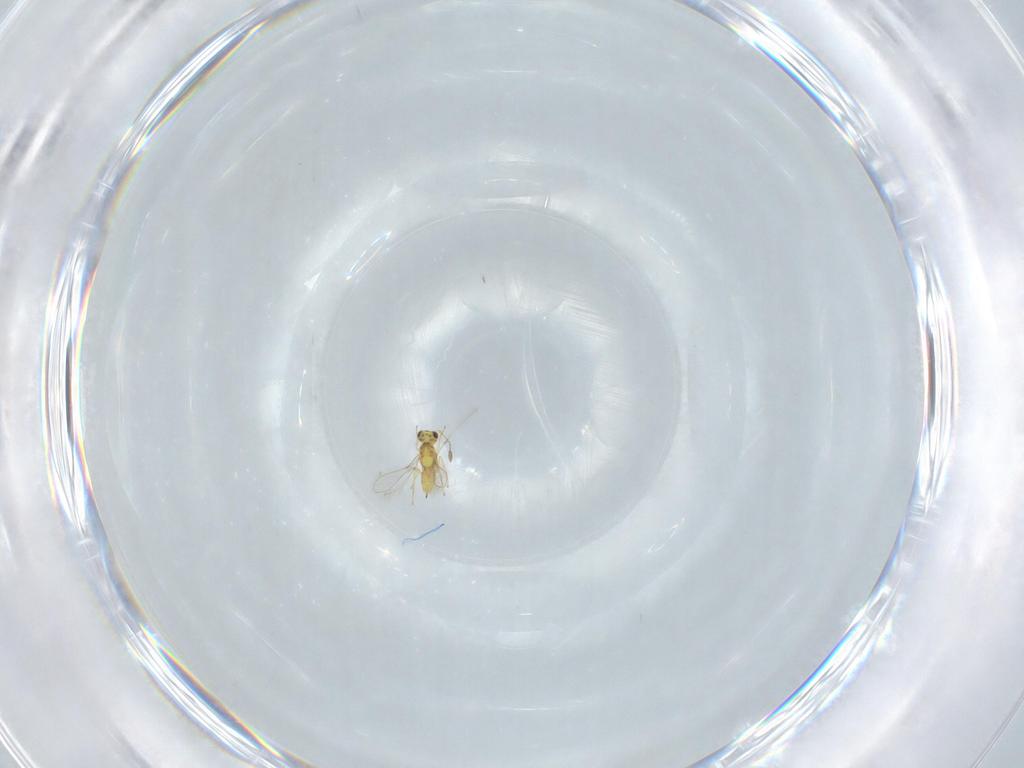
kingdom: Animalia
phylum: Arthropoda
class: Insecta
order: Hymenoptera
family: Mymaridae
